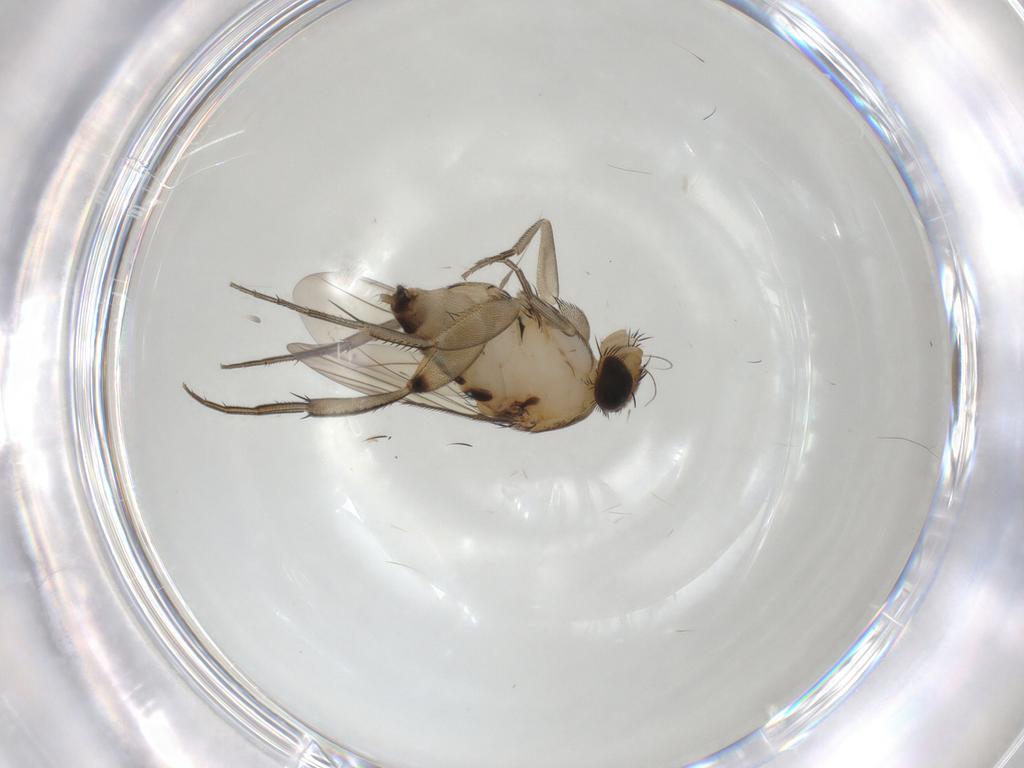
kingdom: Animalia
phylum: Arthropoda
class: Insecta
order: Diptera
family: Phoridae
